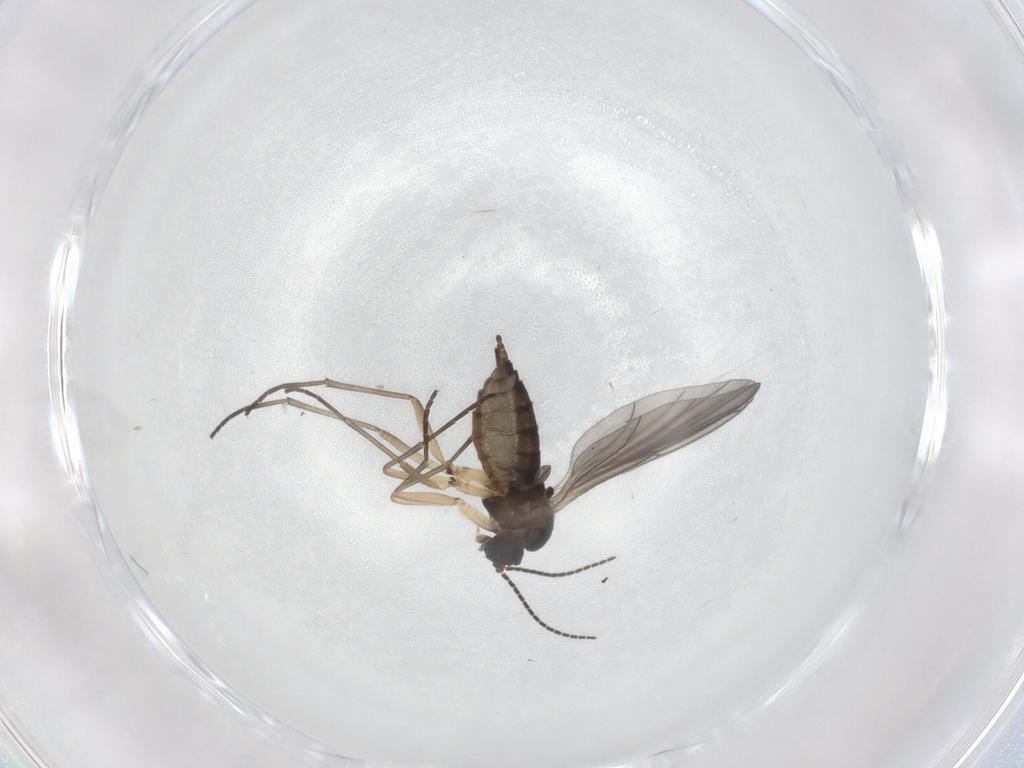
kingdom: Animalia
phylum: Arthropoda
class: Insecta
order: Diptera
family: Sciaridae
